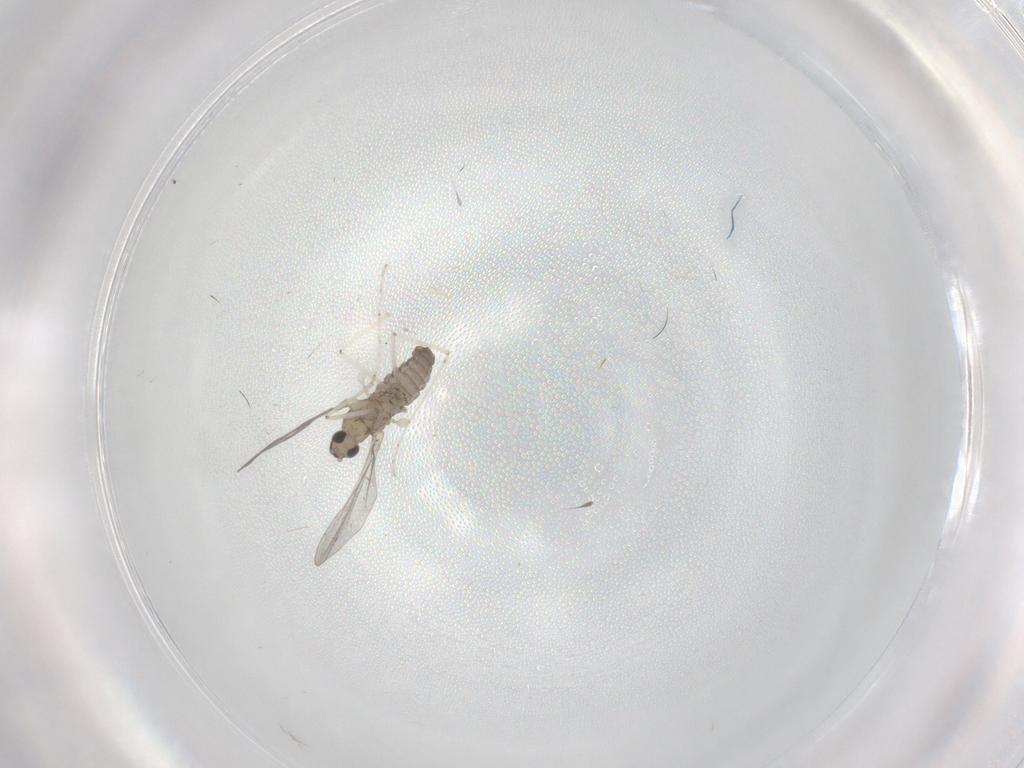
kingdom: Animalia
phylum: Arthropoda
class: Insecta
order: Diptera
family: Cecidomyiidae
